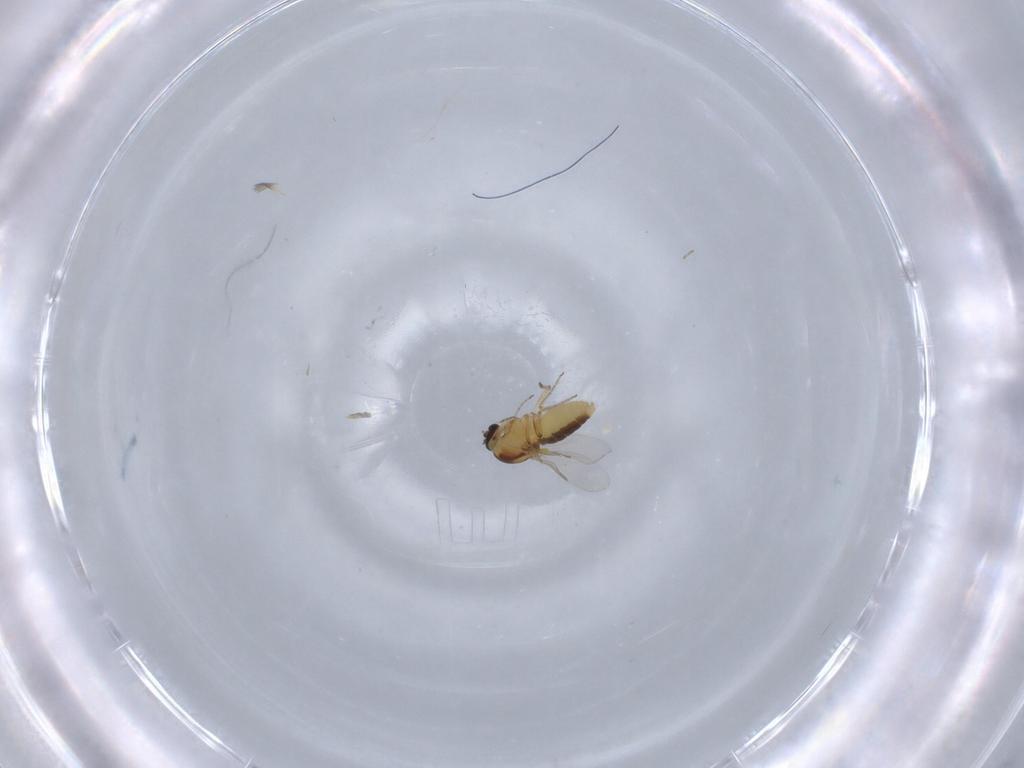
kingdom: Animalia
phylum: Arthropoda
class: Insecta
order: Diptera
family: Ceratopogonidae
